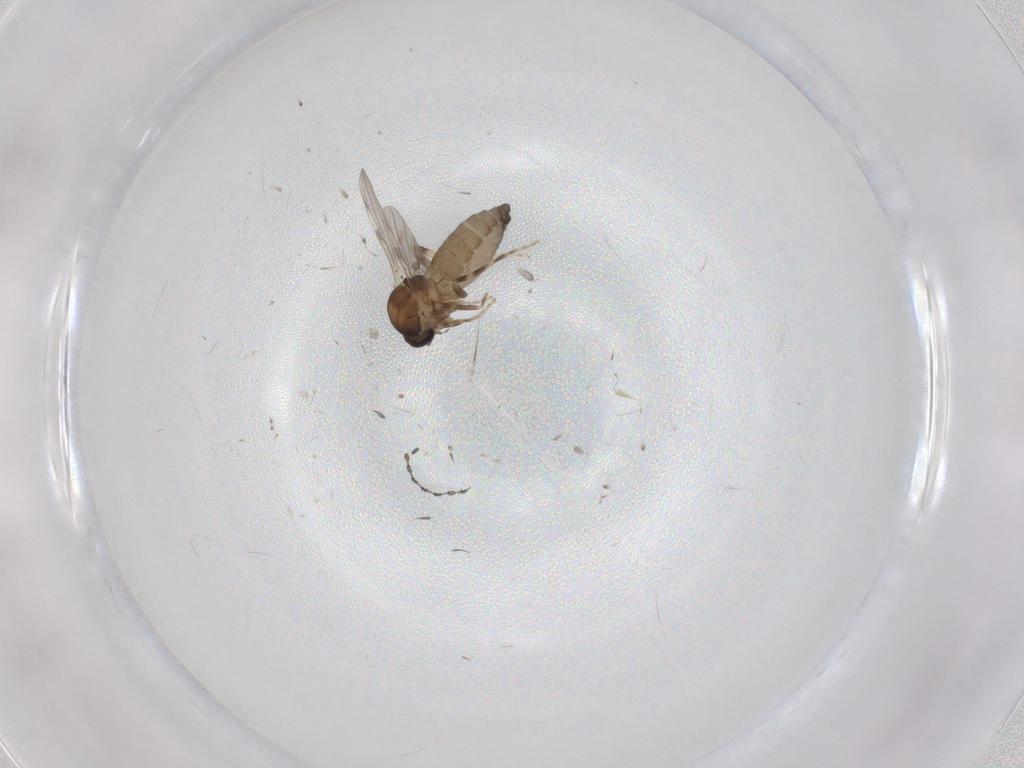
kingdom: Animalia
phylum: Arthropoda
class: Insecta
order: Diptera
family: Ceratopogonidae
